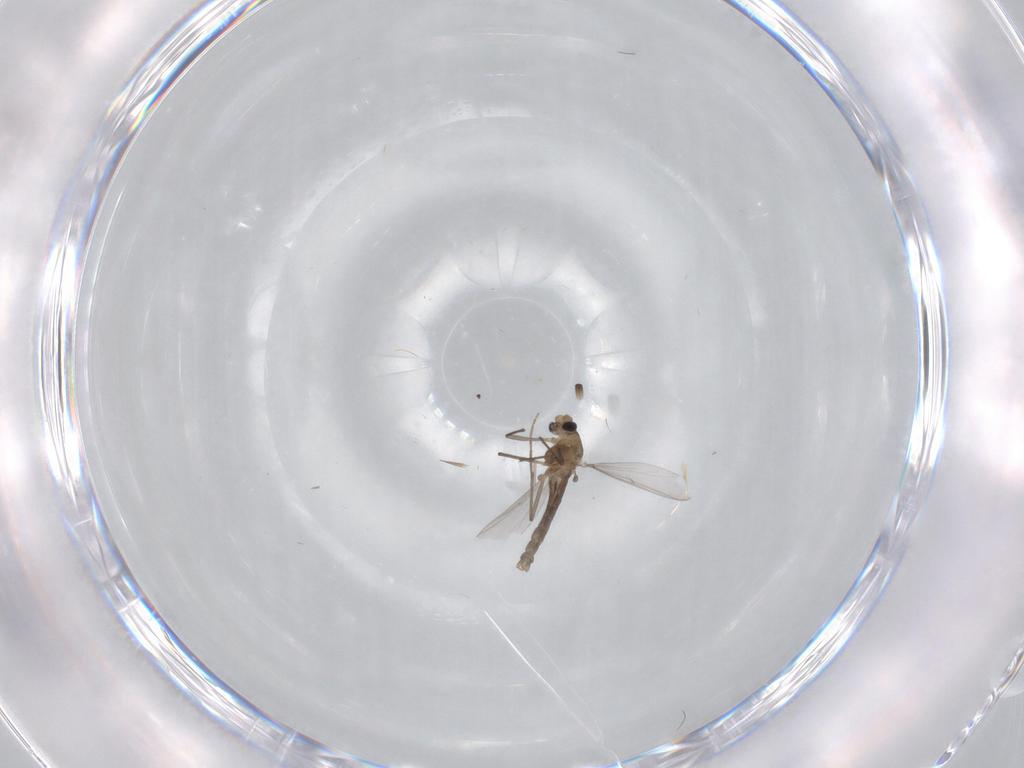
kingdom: Animalia
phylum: Arthropoda
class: Insecta
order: Diptera
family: Chironomidae
